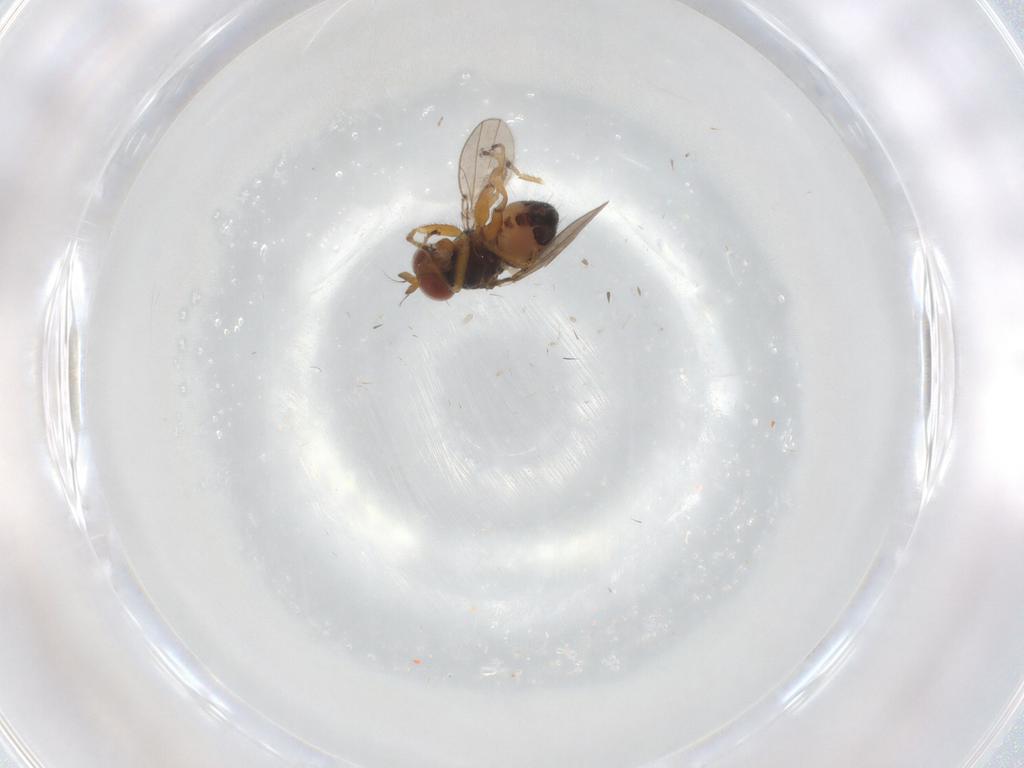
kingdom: Animalia
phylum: Arthropoda
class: Insecta
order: Diptera
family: Ephydridae
